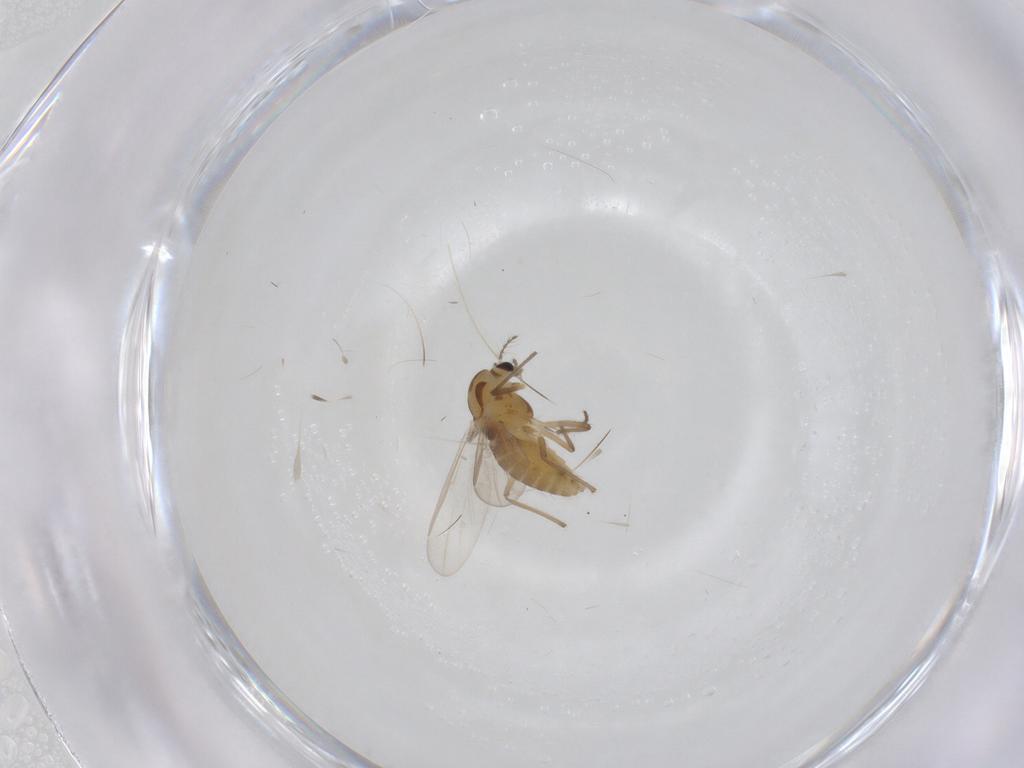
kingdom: Animalia
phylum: Arthropoda
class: Insecta
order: Diptera
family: Chironomidae
